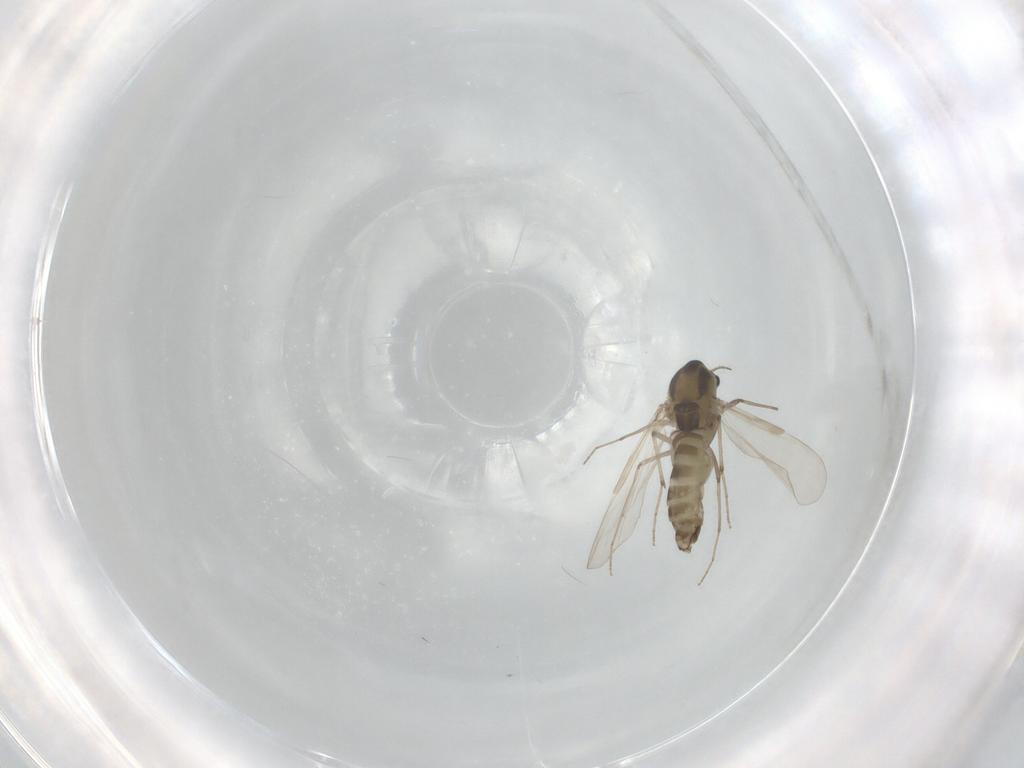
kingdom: Animalia
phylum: Arthropoda
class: Insecta
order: Diptera
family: Chironomidae
